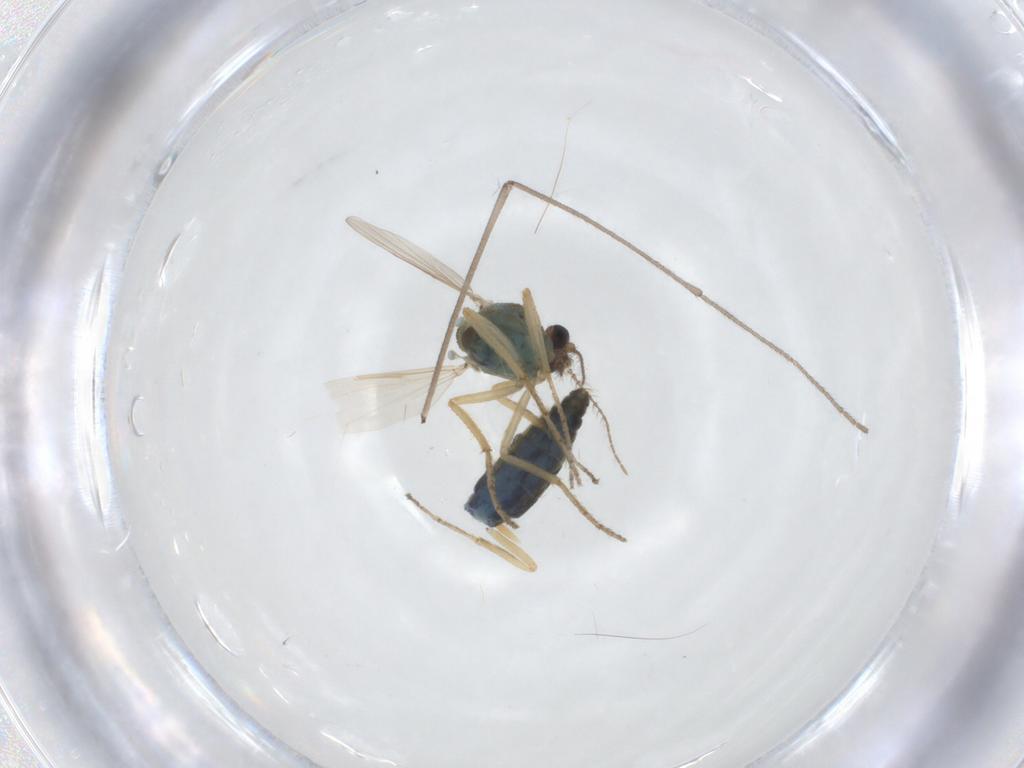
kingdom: Animalia
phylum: Arthropoda
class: Insecta
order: Diptera
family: Ceratopogonidae
